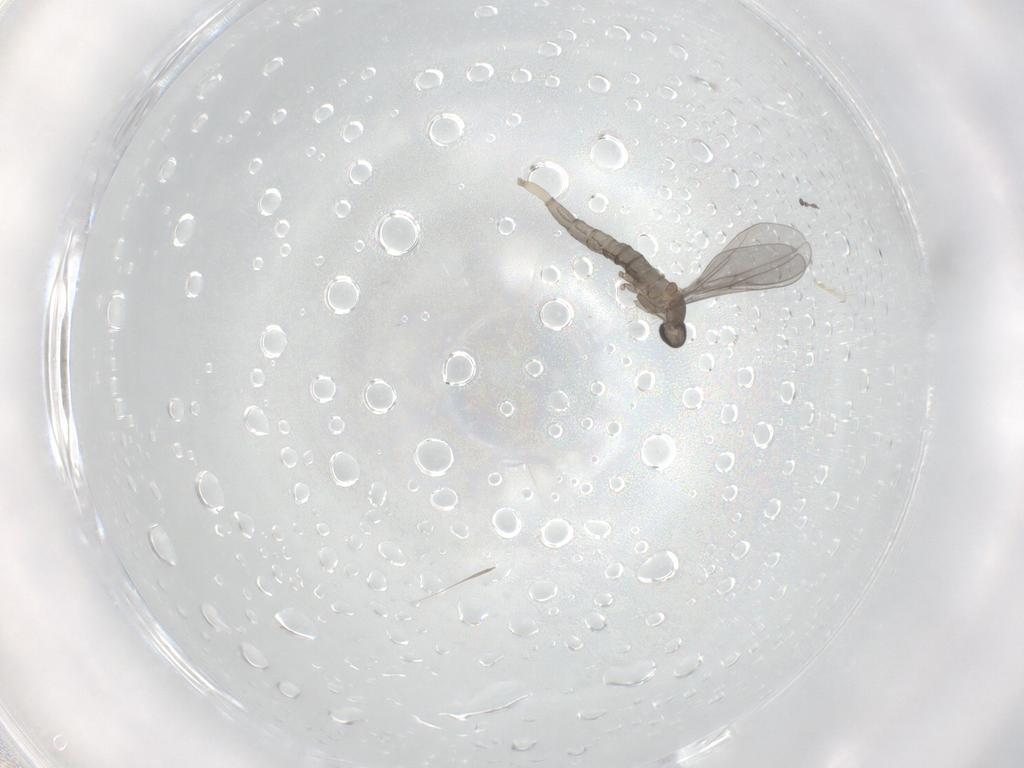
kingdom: Animalia
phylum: Arthropoda
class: Insecta
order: Diptera
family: Cecidomyiidae
